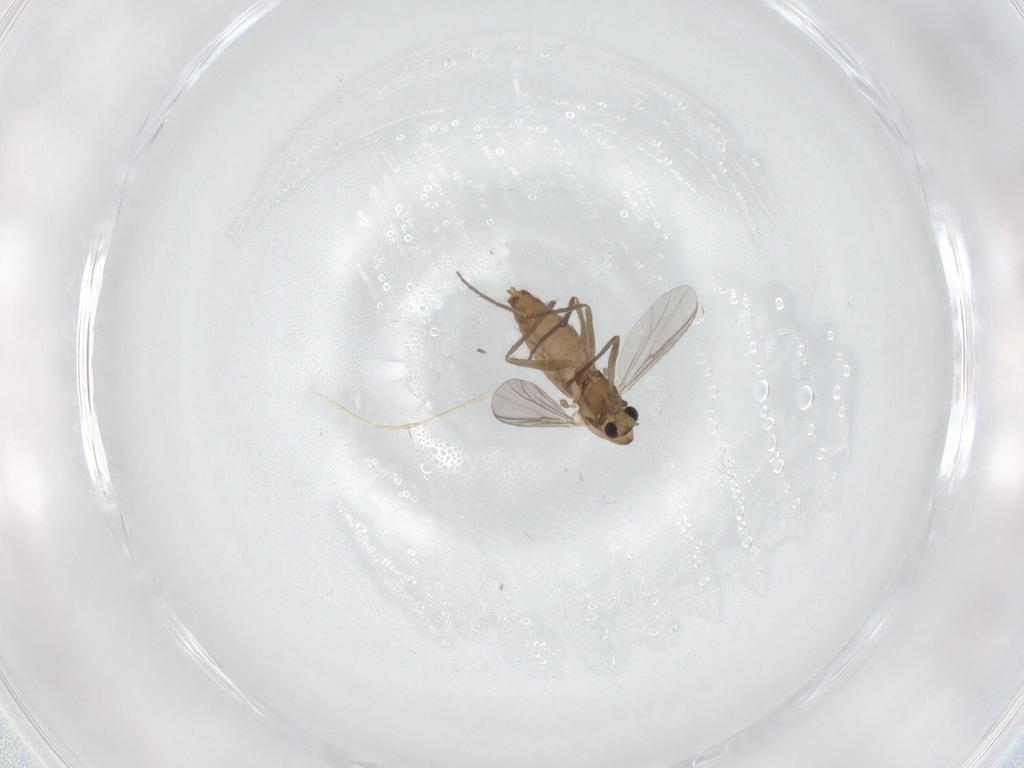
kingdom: Animalia
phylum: Arthropoda
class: Insecta
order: Diptera
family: Chironomidae
